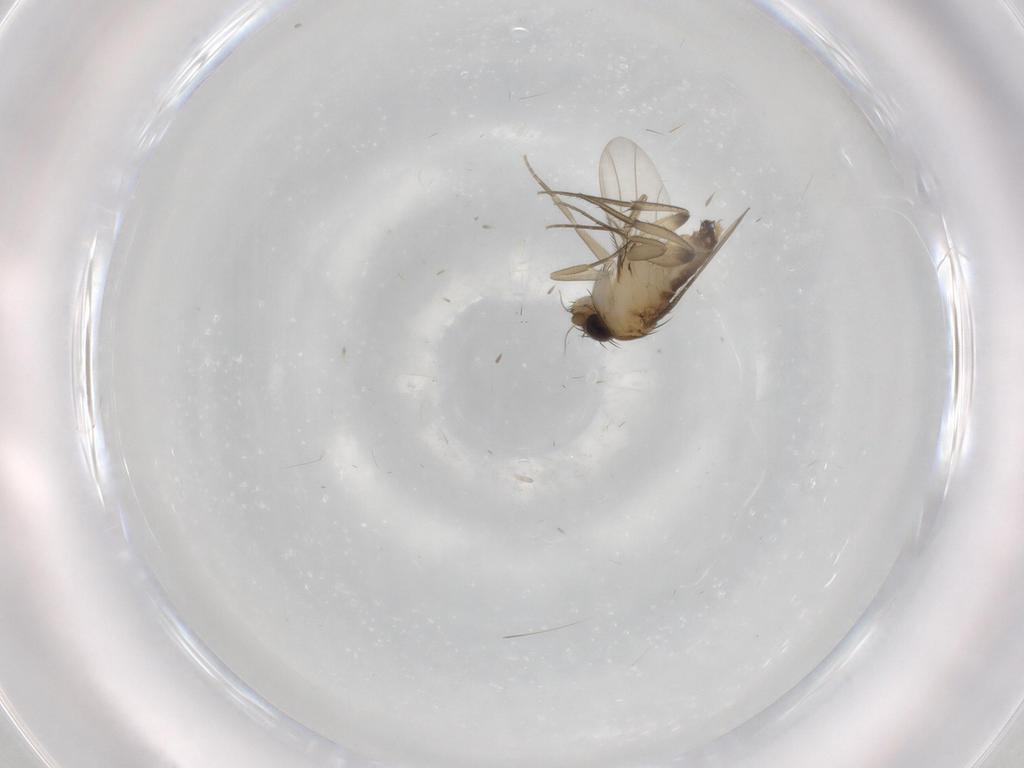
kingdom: Animalia
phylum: Arthropoda
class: Insecta
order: Diptera
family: Phoridae
